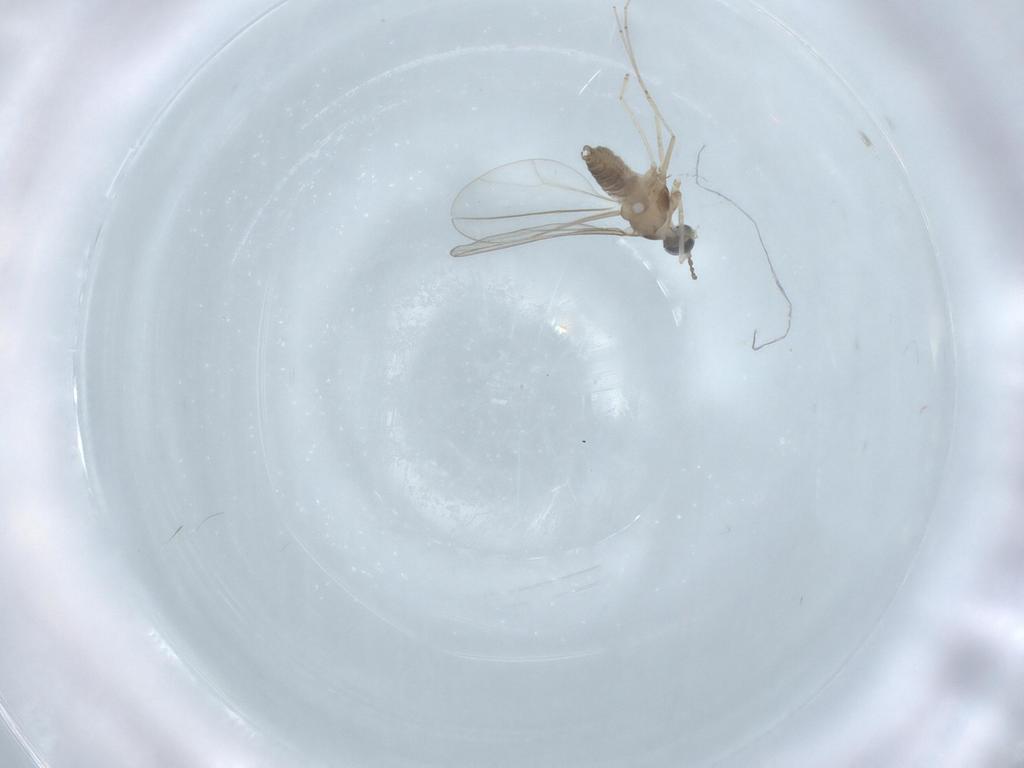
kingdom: Animalia
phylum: Arthropoda
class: Insecta
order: Diptera
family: Cecidomyiidae
